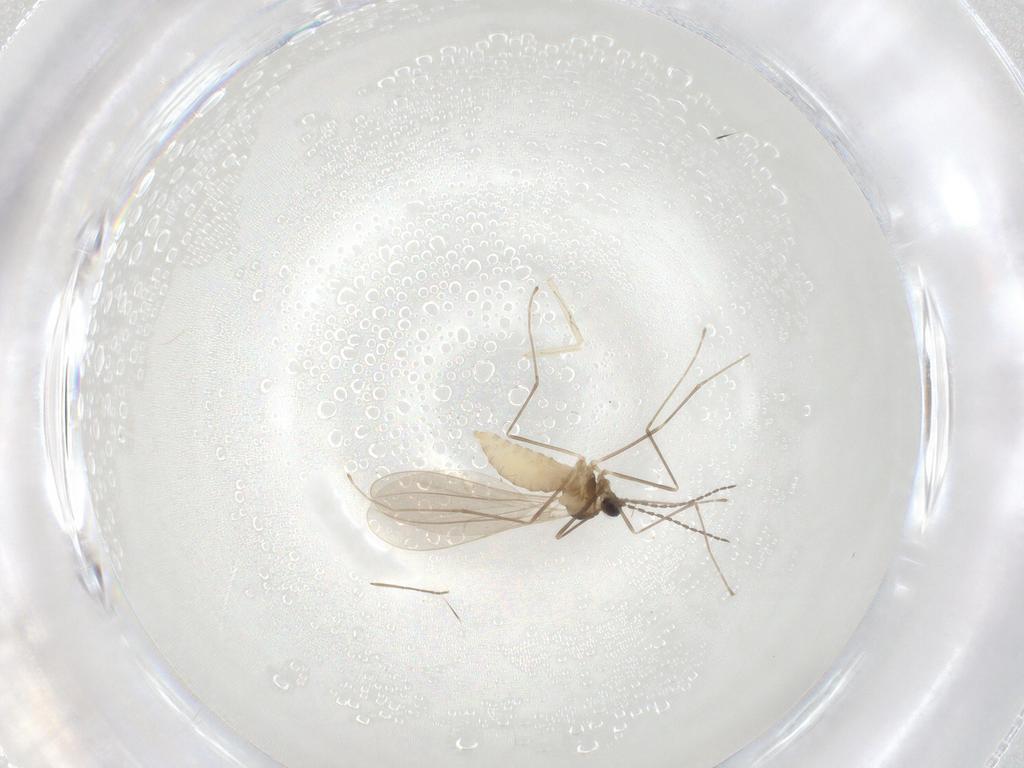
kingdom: Animalia
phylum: Arthropoda
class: Insecta
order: Diptera
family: Cecidomyiidae
